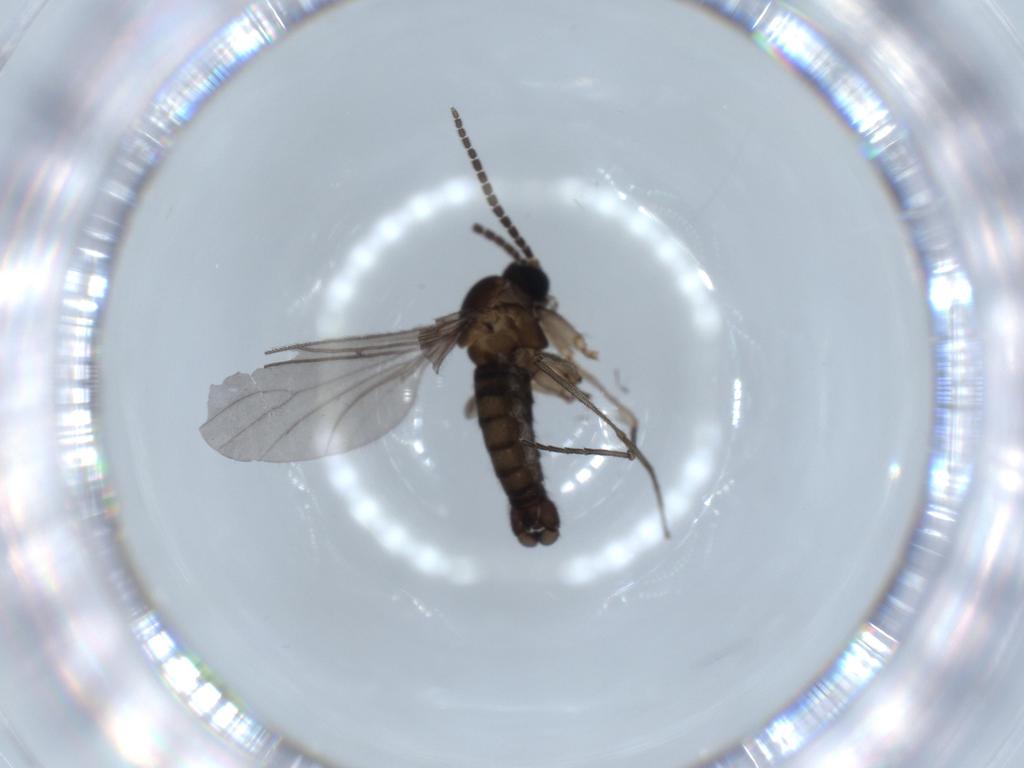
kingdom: Animalia
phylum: Arthropoda
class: Insecta
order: Diptera
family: Sciaridae
